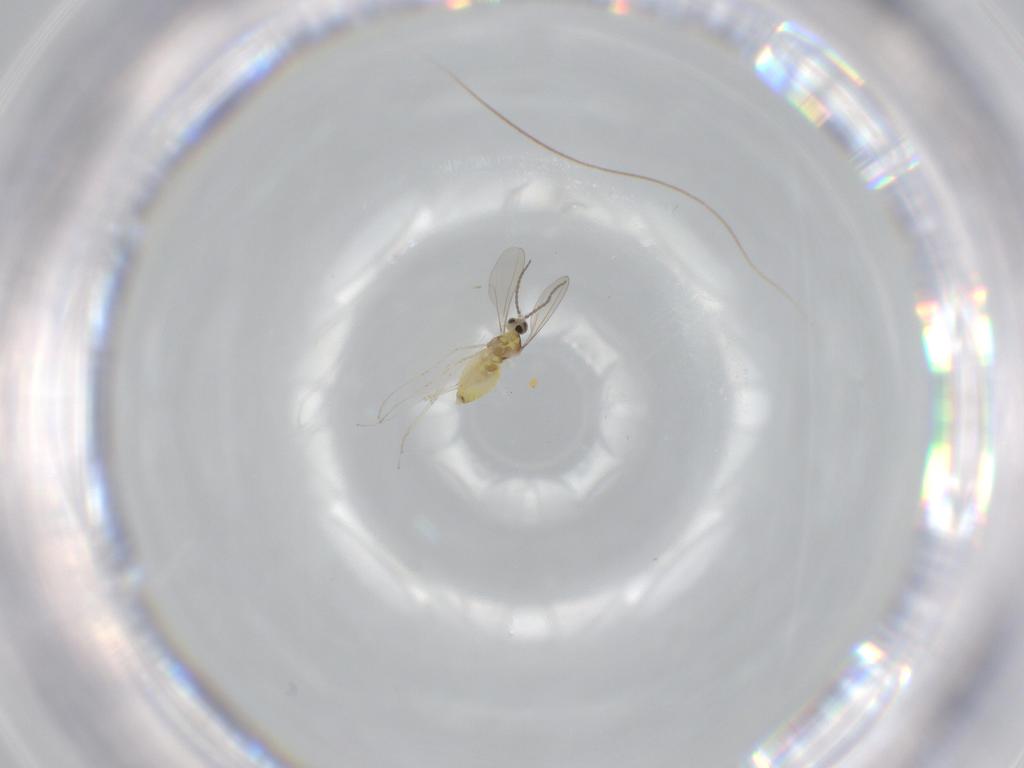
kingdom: Animalia
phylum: Arthropoda
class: Insecta
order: Diptera
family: Cecidomyiidae
